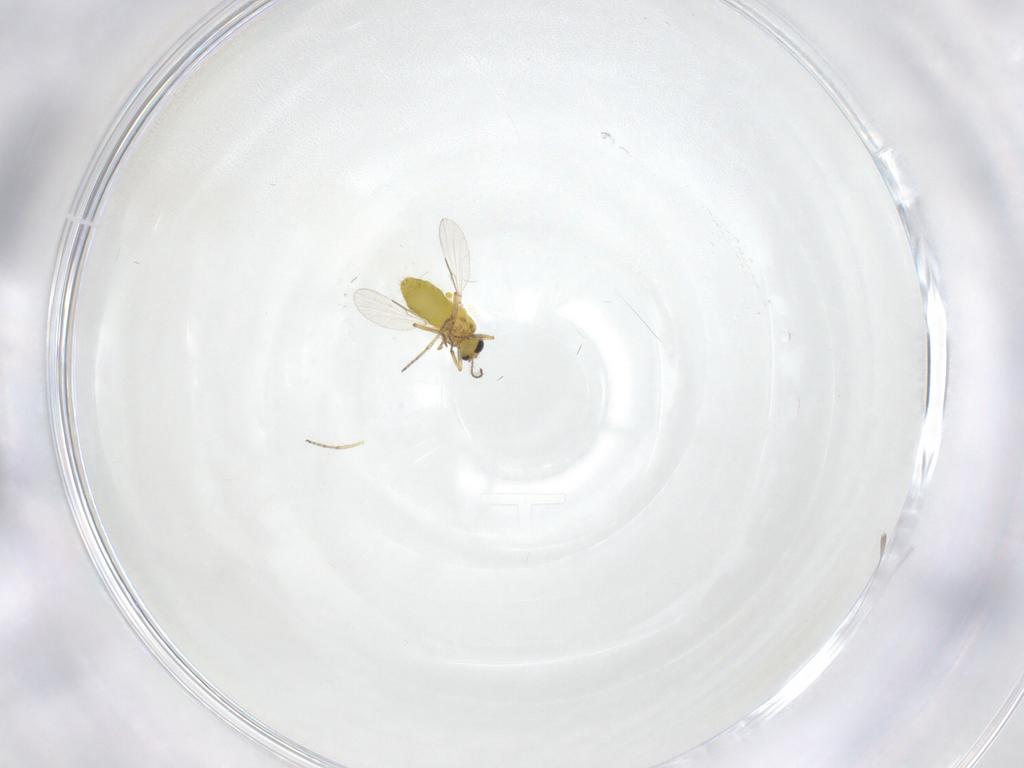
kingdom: Animalia
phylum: Arthropoda
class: Insecta
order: Diptera
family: Ceratopogonidae
